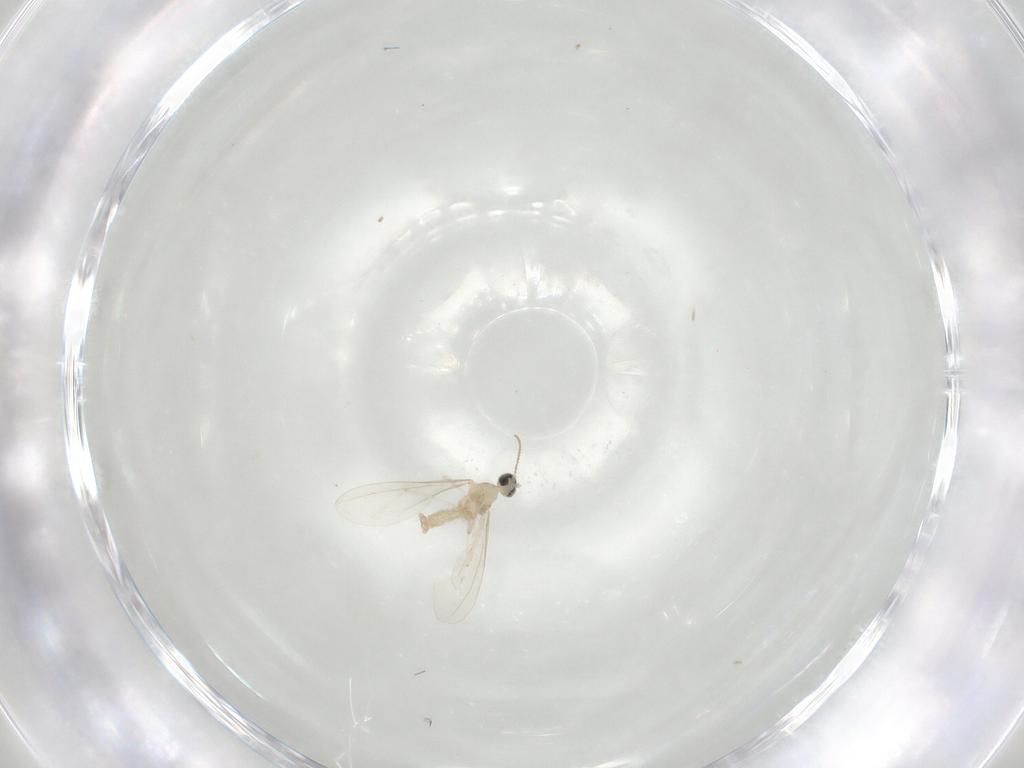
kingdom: Animalia
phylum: Arthropoda
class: Insecta
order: Diptera
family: Cecidomyiidae
